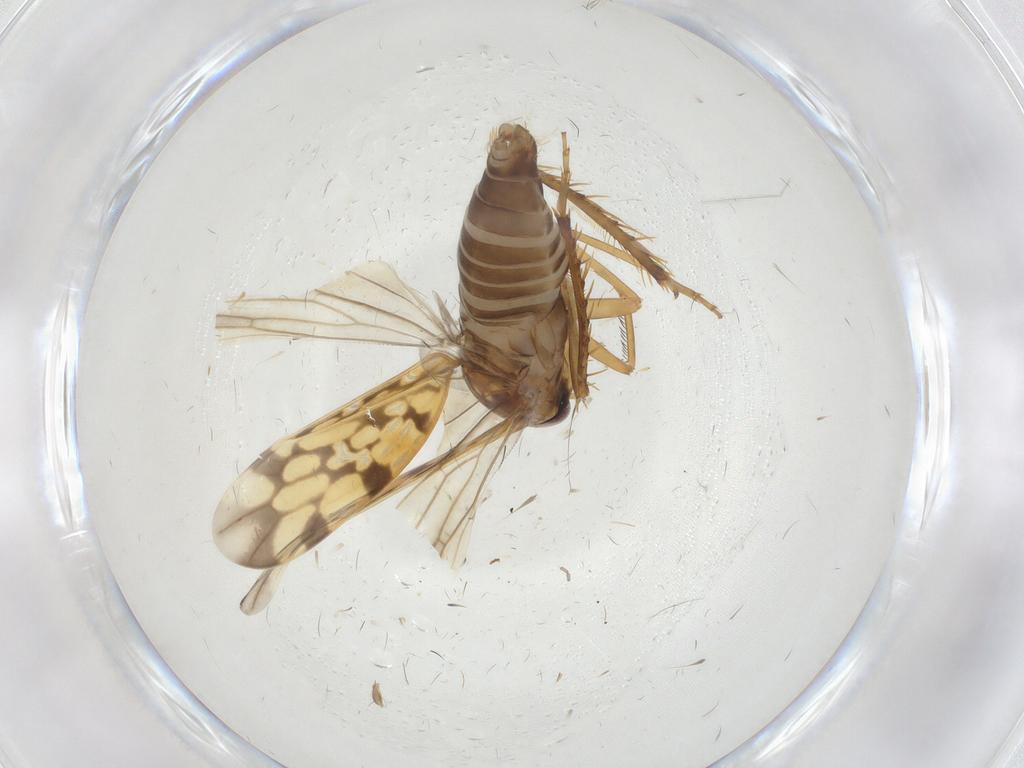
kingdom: Animalia
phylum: Arthropoda
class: Insecta
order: Hemiptera
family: Cicadellidae
